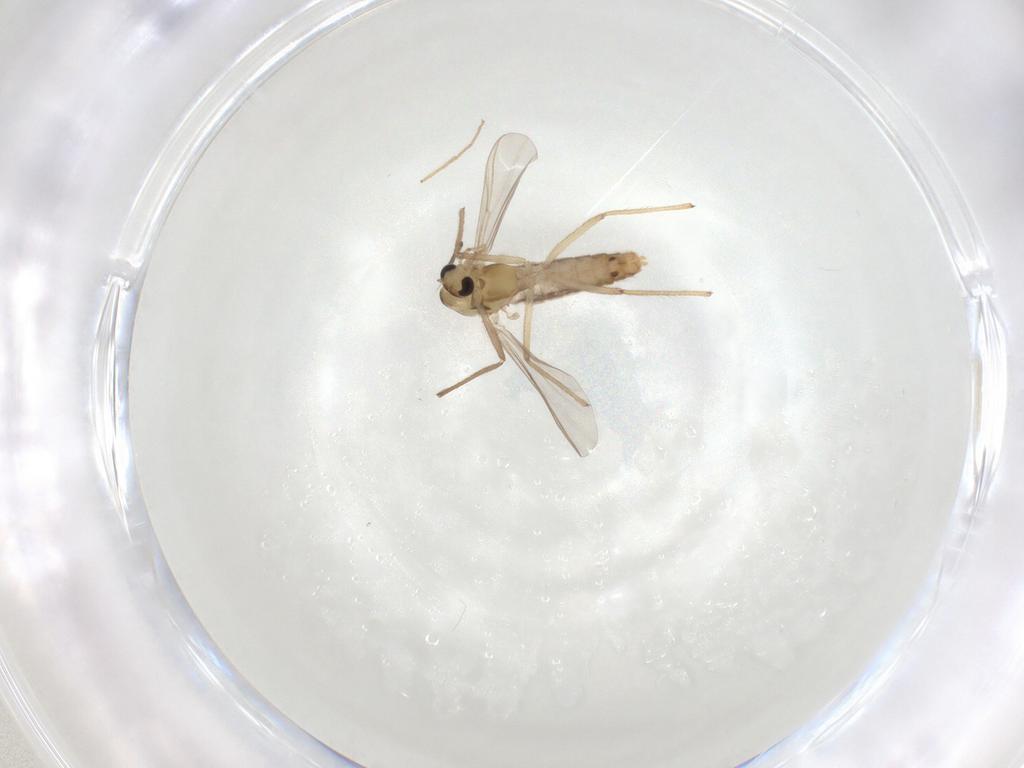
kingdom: Animalia
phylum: Arthropoda
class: Insecta
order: Diptera
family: Chironomidae
